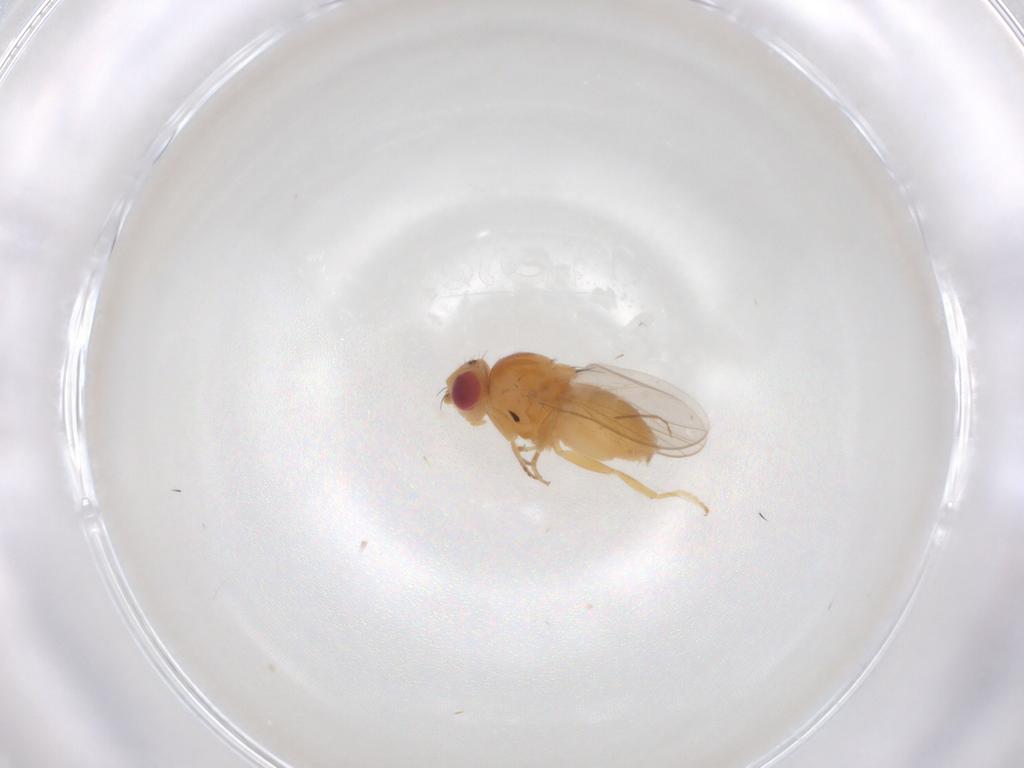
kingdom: Animalia
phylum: Arthropoda
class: Insecta
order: Diptera
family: Chloropidae
